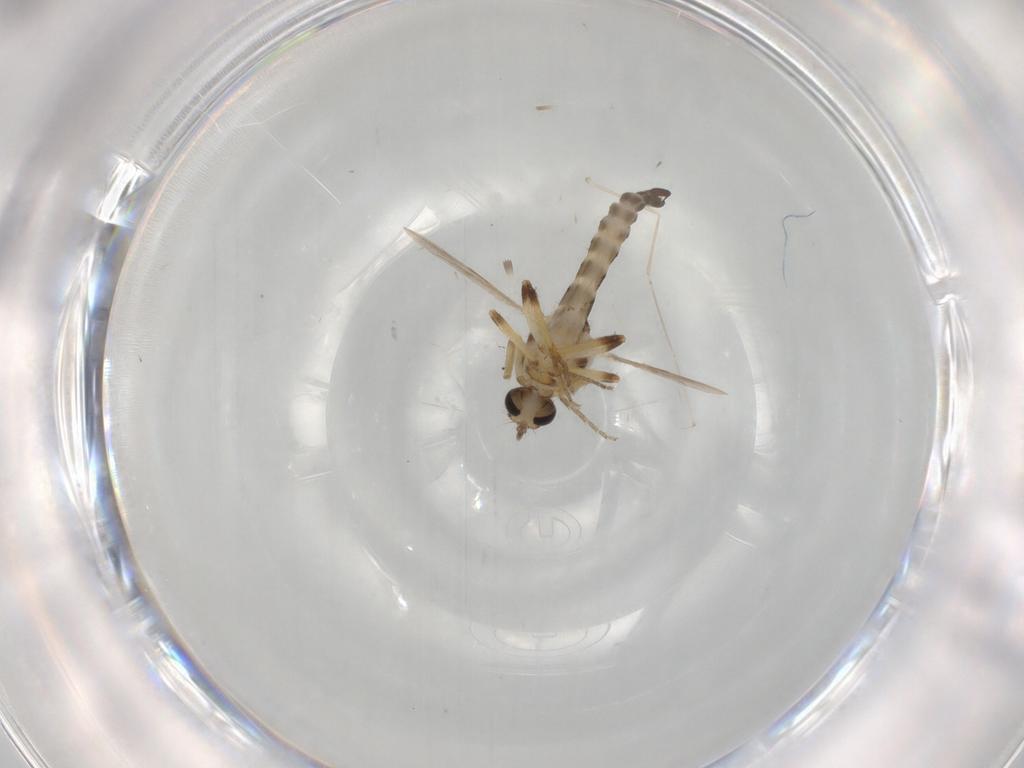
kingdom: Animalia
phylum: Arthropoda
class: Insecta
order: Diptera
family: Ceratopogonidae
